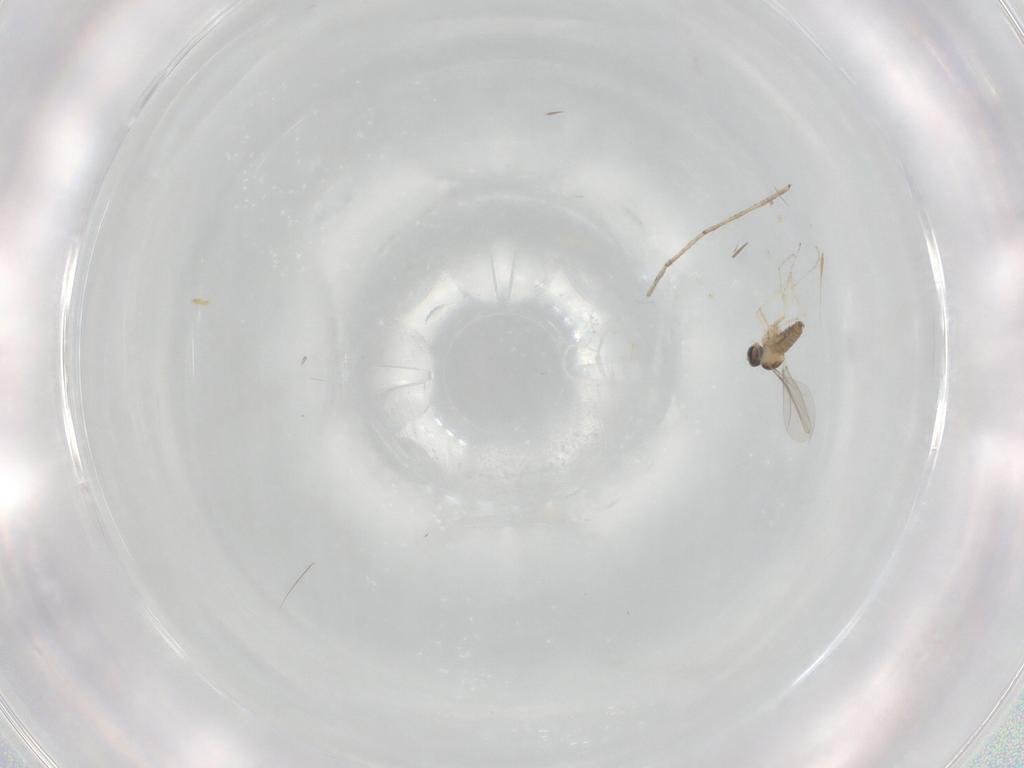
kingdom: Animalia
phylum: Arthropoda
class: Insecta
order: Diptera
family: Cecidomyiidae
